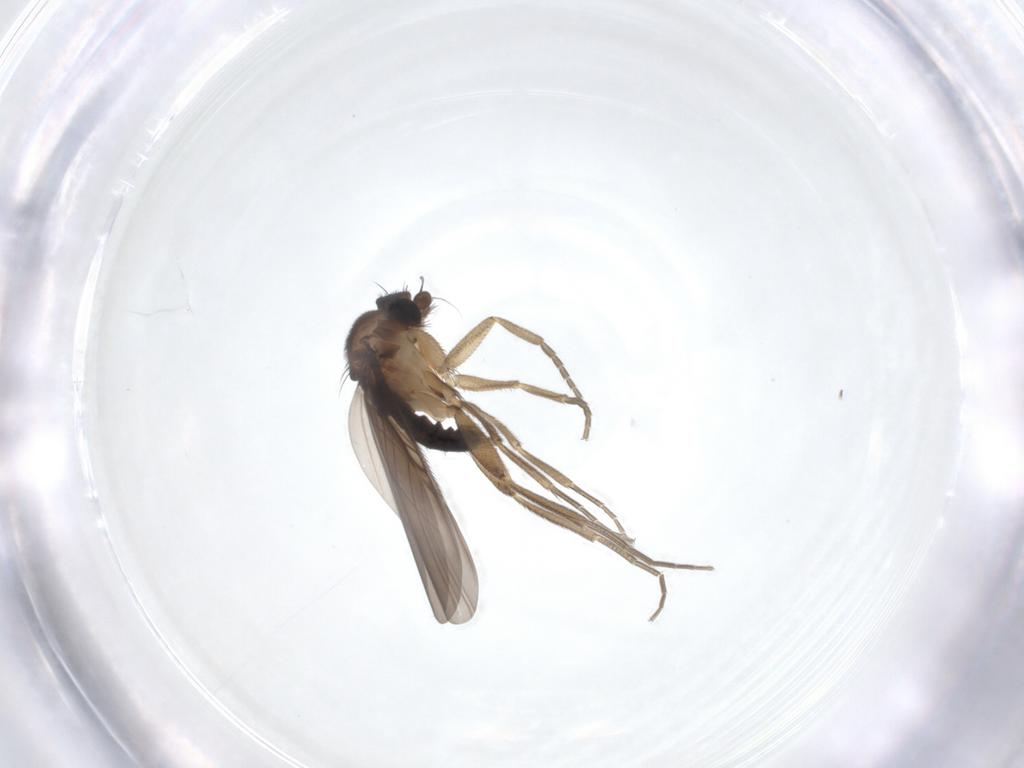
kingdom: Animalia
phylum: Arthropoda
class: Insecta
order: Diptera
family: Phoridae
